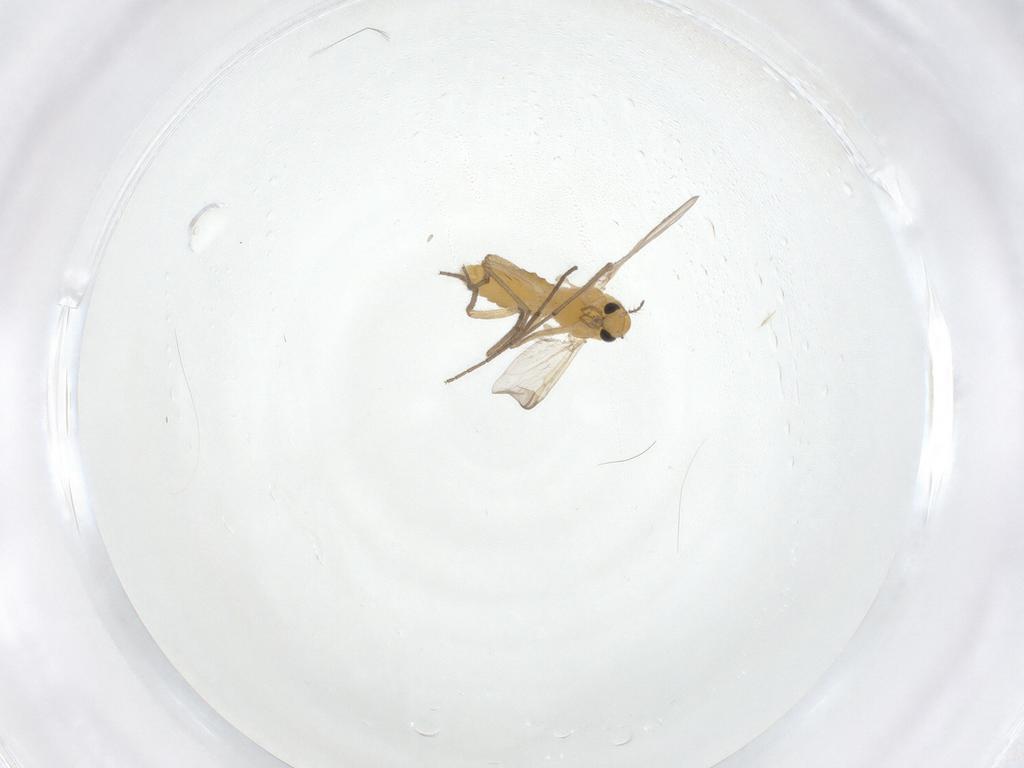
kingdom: Animalia
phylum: Arthropoda
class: Insecta
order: Diptera
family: Chironomidae
